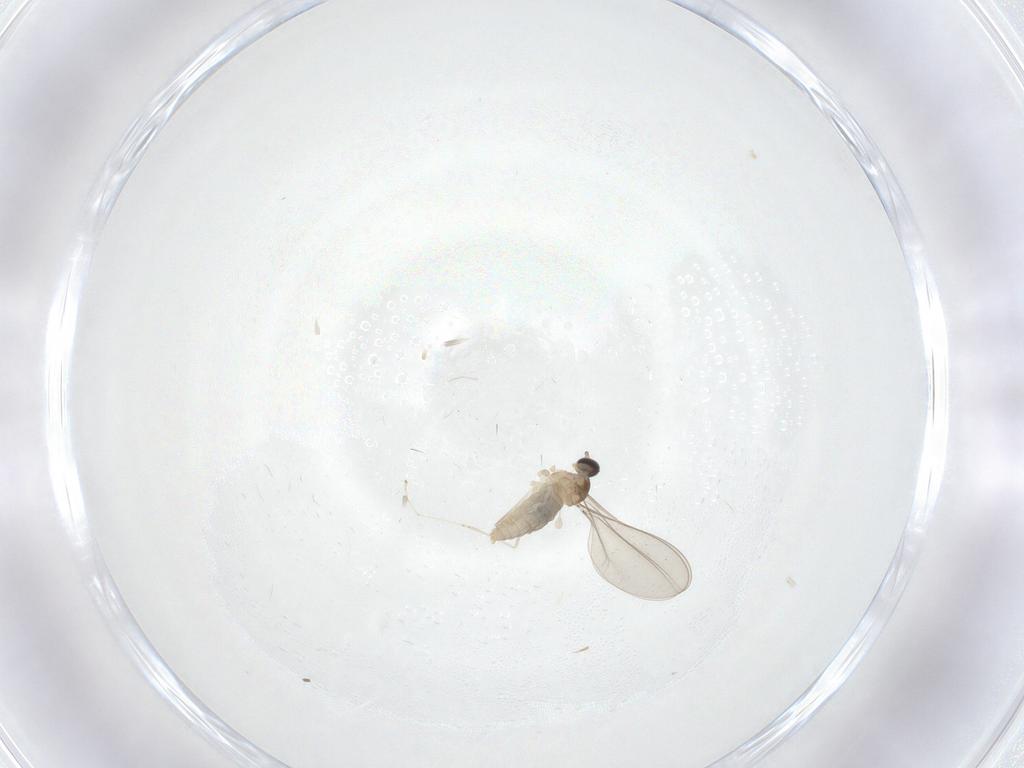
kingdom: Animalia
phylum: Arthropoda
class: Insecta
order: Diptera
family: Cecidomyiidae
